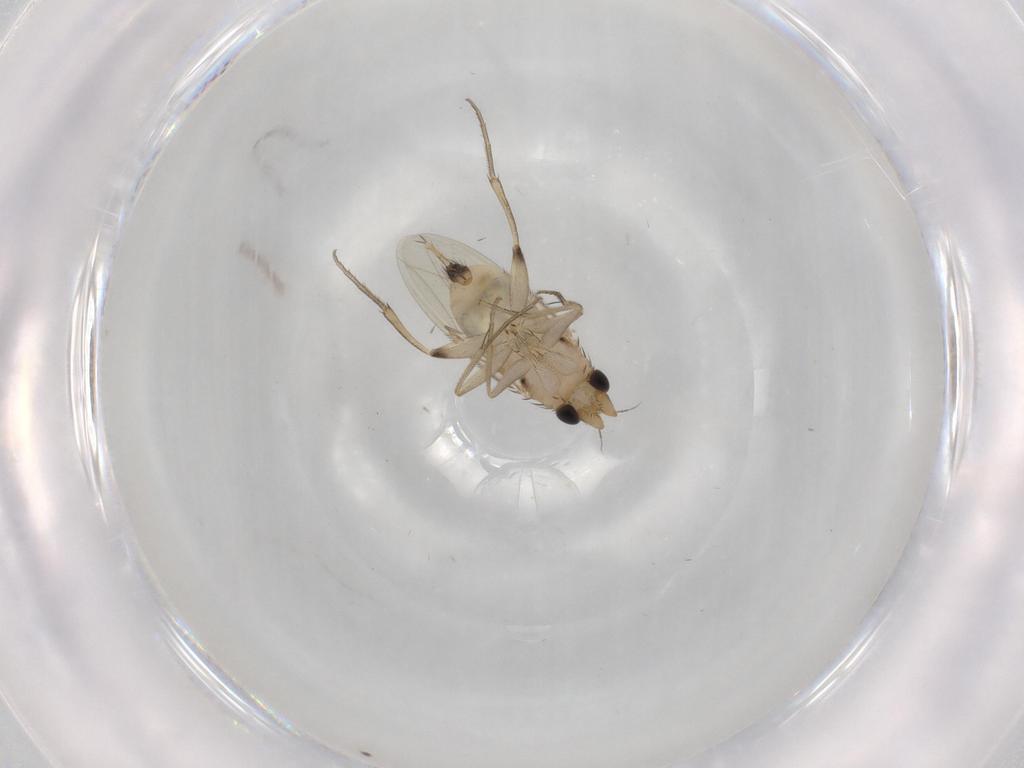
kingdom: Animalia
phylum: Arthropoda
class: Insecta
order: Diptera
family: Phoridae
